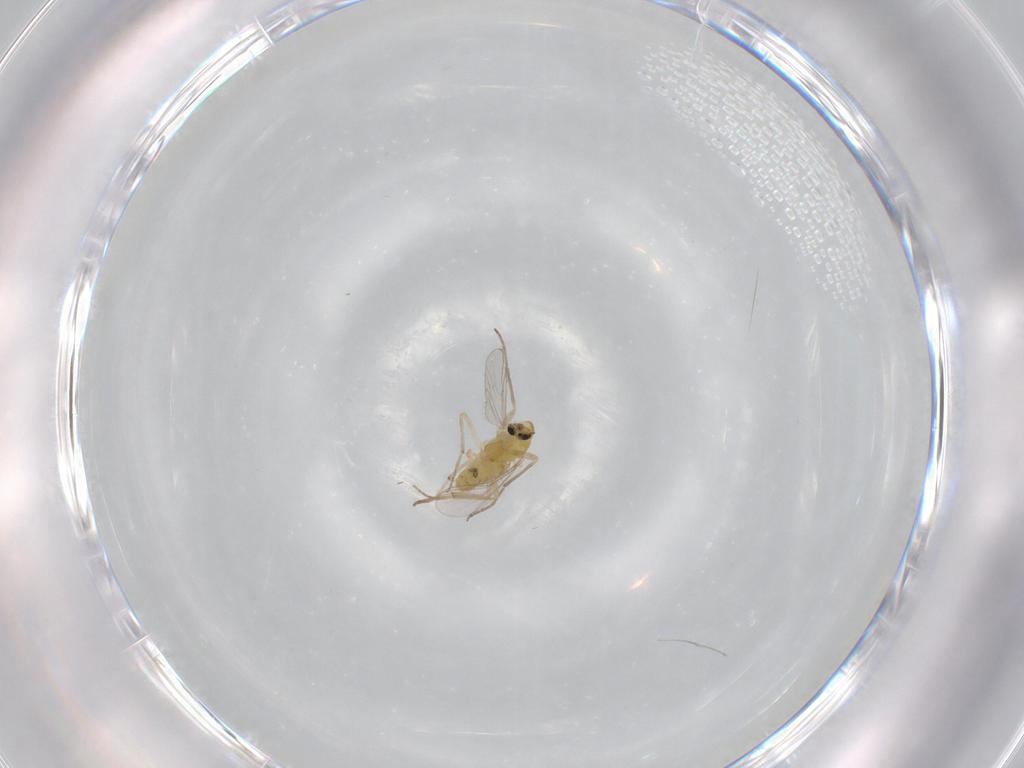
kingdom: Animalia
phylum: Arthropoda
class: Insecta
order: Diptera
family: Chironomidae
